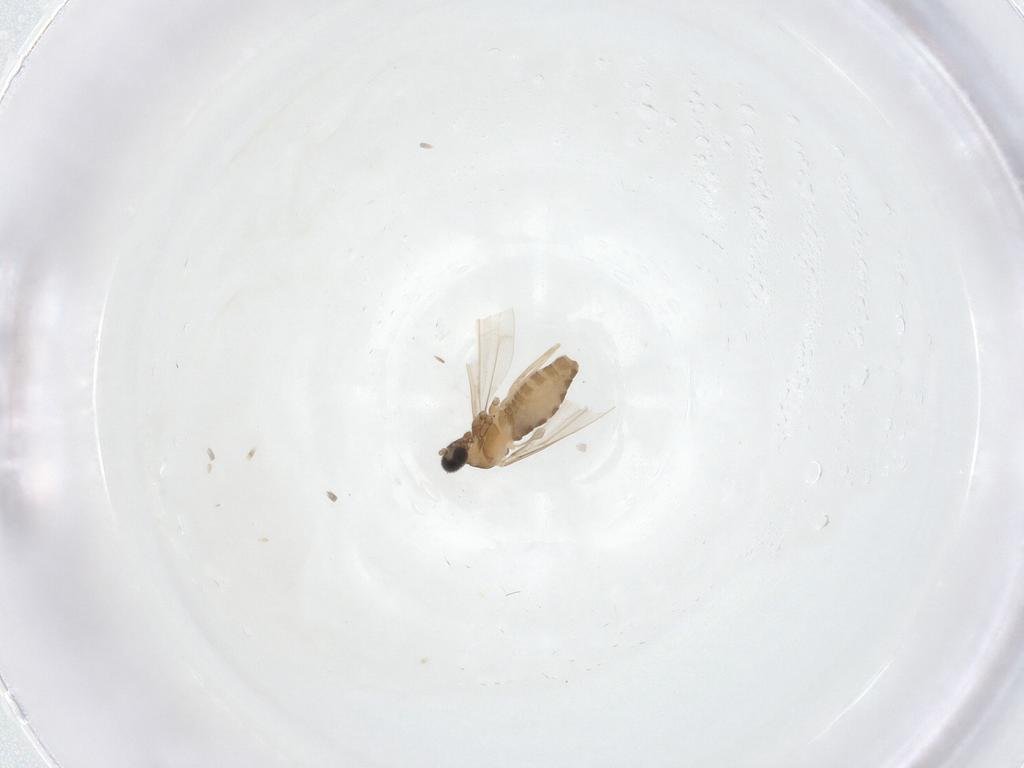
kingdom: Animalia
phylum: Arthropoda
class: Insecta
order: Diptera
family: Cecidomyiidae
